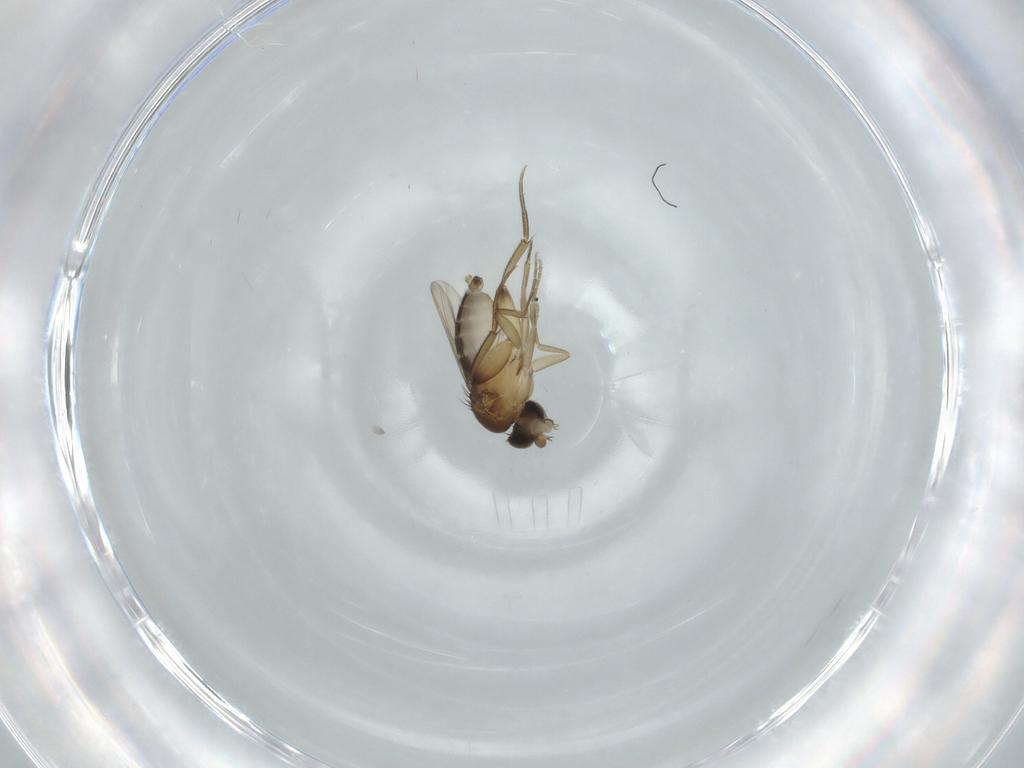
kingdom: Animalia
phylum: Arthropoda
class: Insecta
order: Diptera
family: Phoridae
